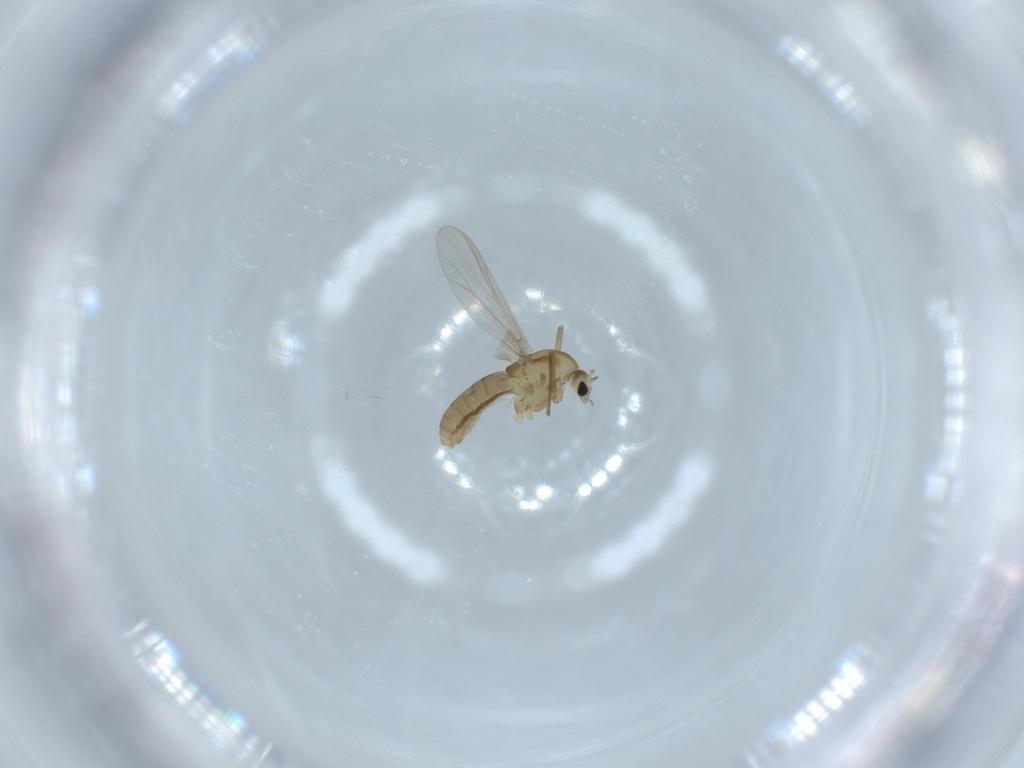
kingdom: Animalia
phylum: Arthropoda
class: Insecta
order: Diptera
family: Chironomidae
